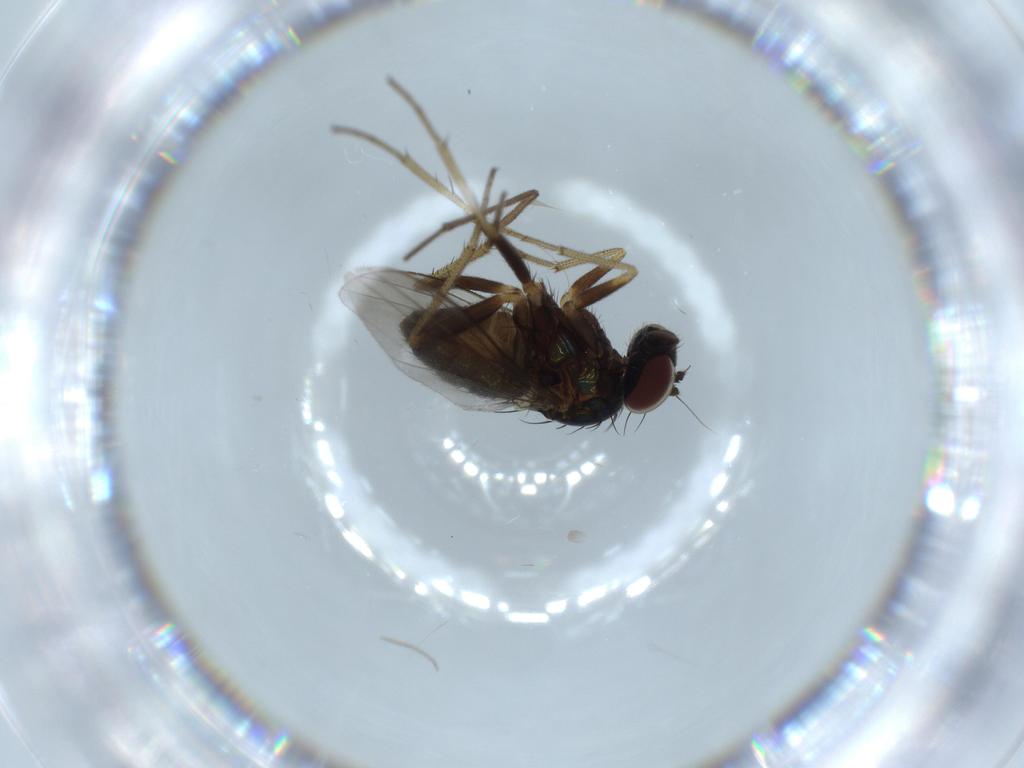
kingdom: Animalia
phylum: Arthropoda
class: Insecta
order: Diptera
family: Dolichopodidae
